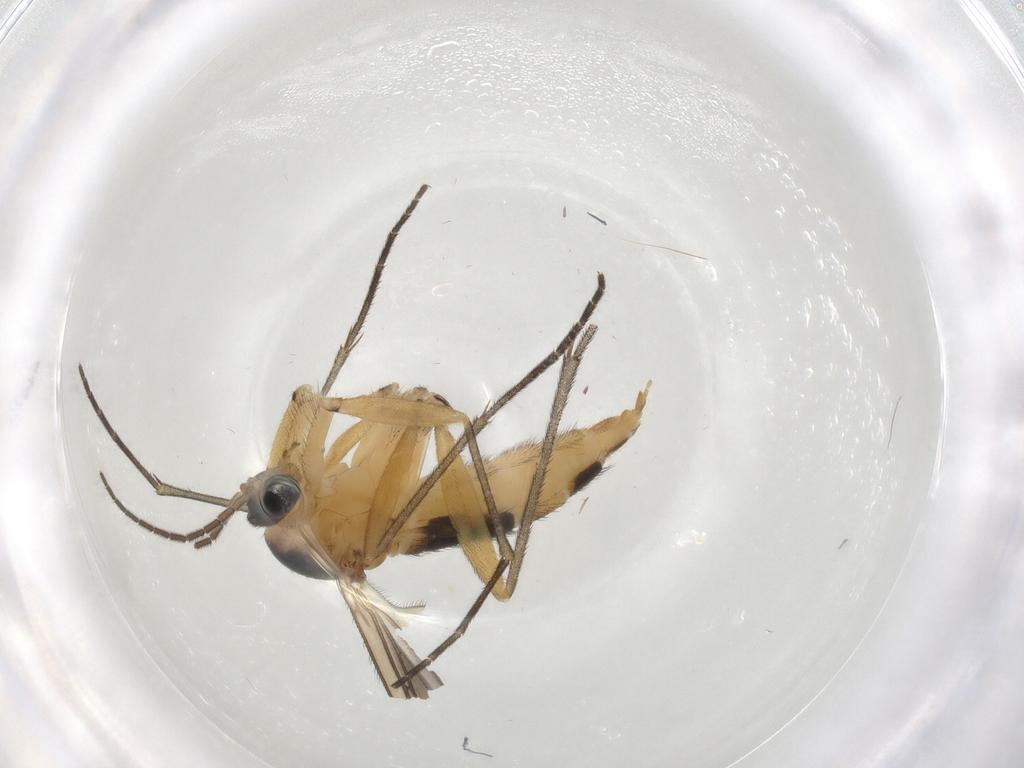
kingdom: Animalia
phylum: Arthropoda
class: Insecta
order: Diptera
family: Sciaridae
